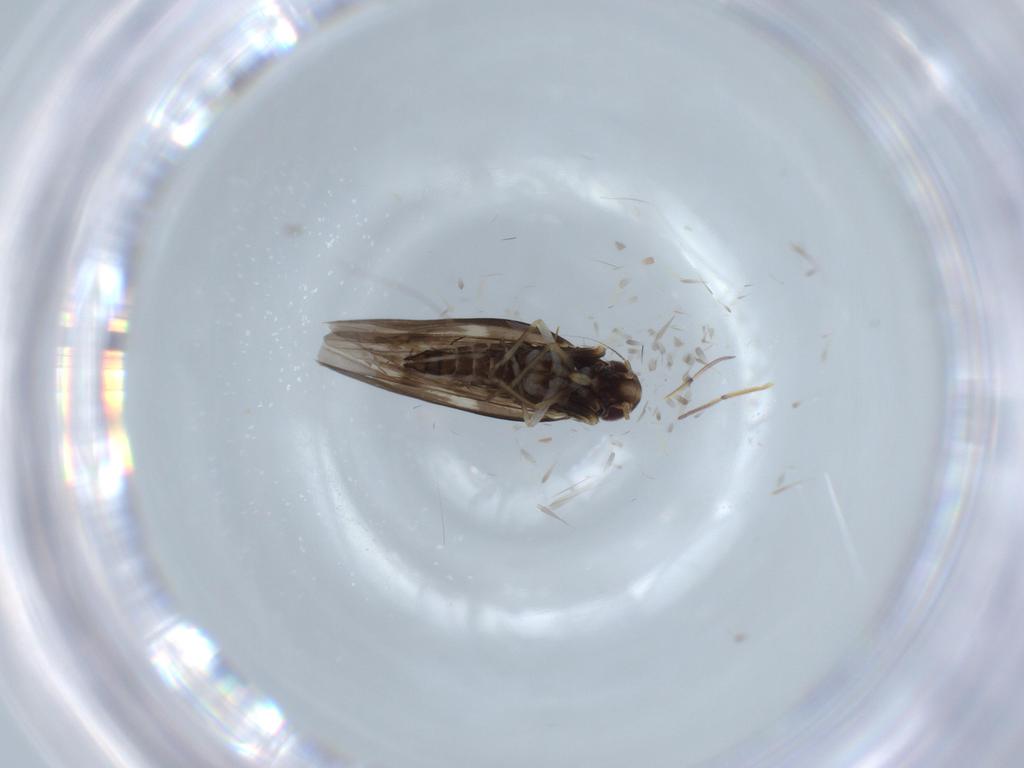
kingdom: Animalia
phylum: Arthropoda
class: Insecta
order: Hemiptera
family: Cicadellidae
